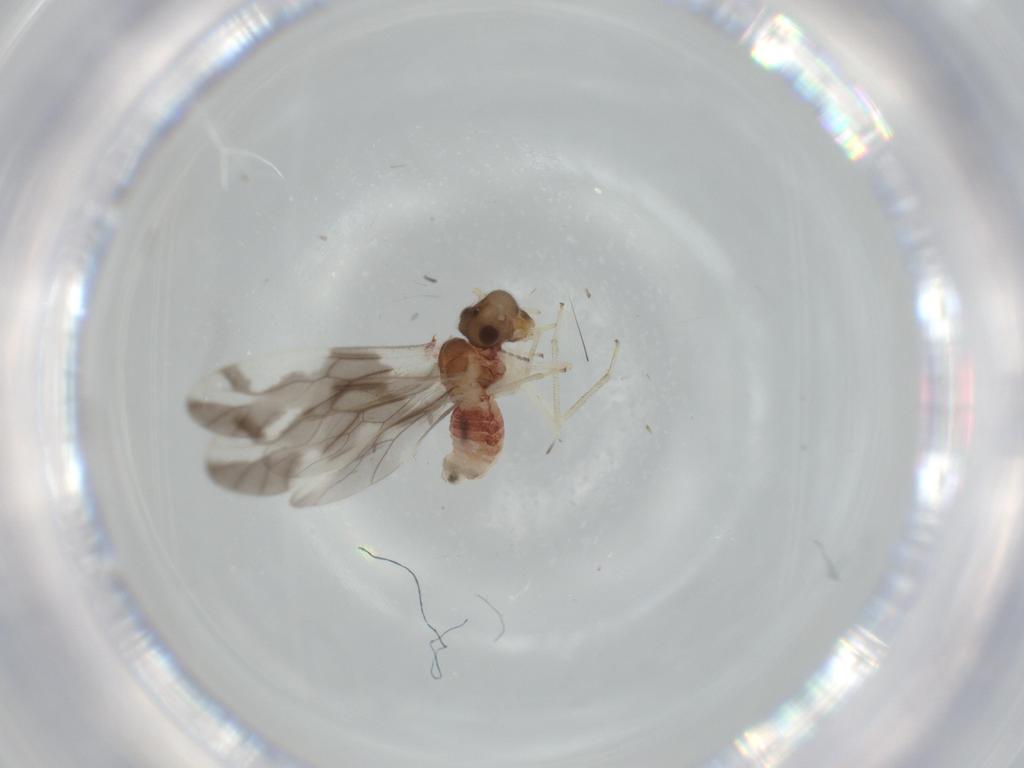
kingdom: Animalia
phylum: Arthropoda
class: Insecta
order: Psocodea
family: Caeciliusidae
